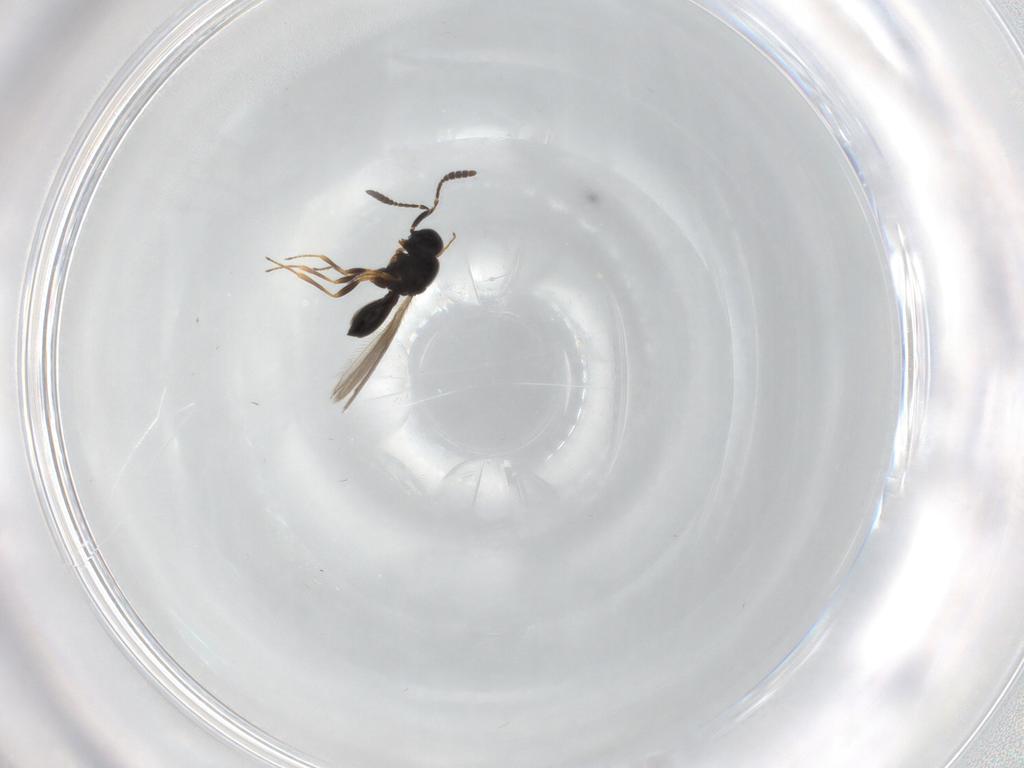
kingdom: Animalia
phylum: Arthropoda
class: Insecta
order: Hymenoptera
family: Scelionidae
